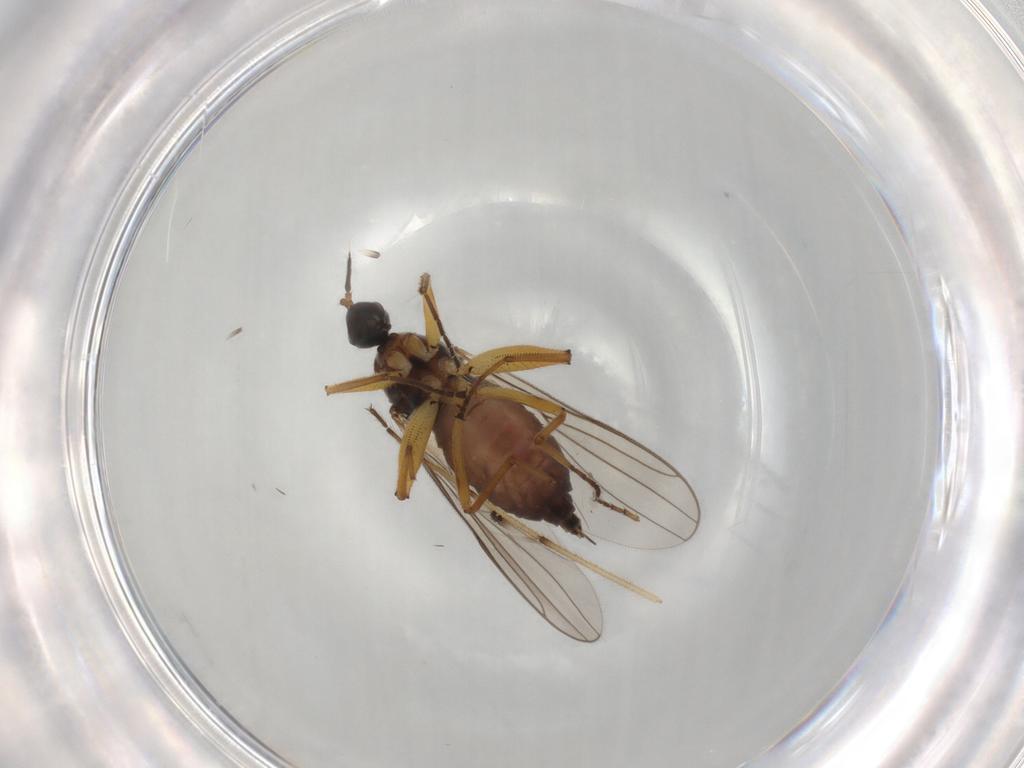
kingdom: Animalia
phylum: Arthropoda
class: Insecta
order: Diptera
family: Hybotidae
